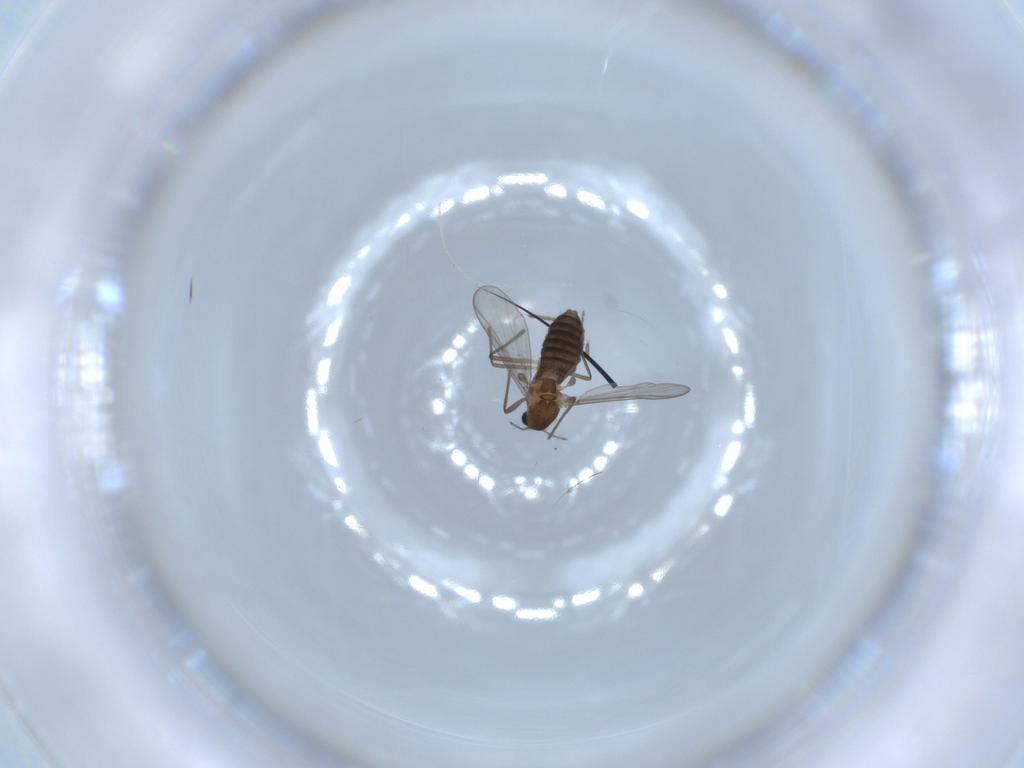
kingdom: Animalia
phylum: Arthropoda
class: Insecta
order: Diptera
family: Chironomidae
